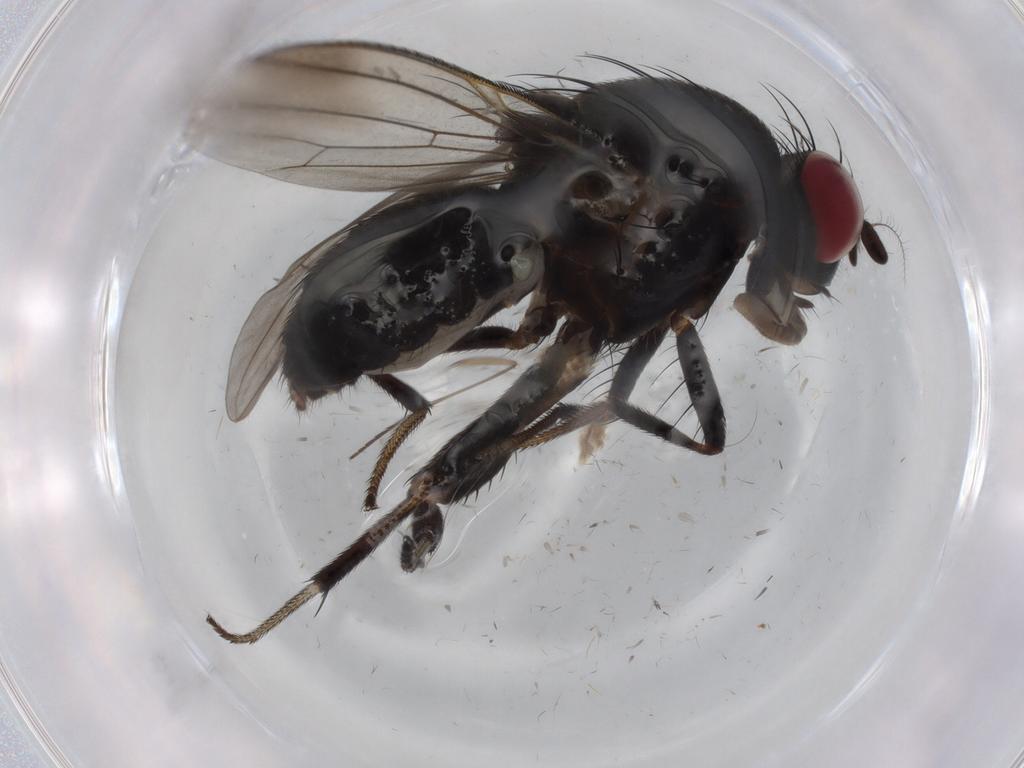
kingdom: Animalia
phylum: Arthropoda
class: Insecta
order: Diptera
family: Lauxaniidae
